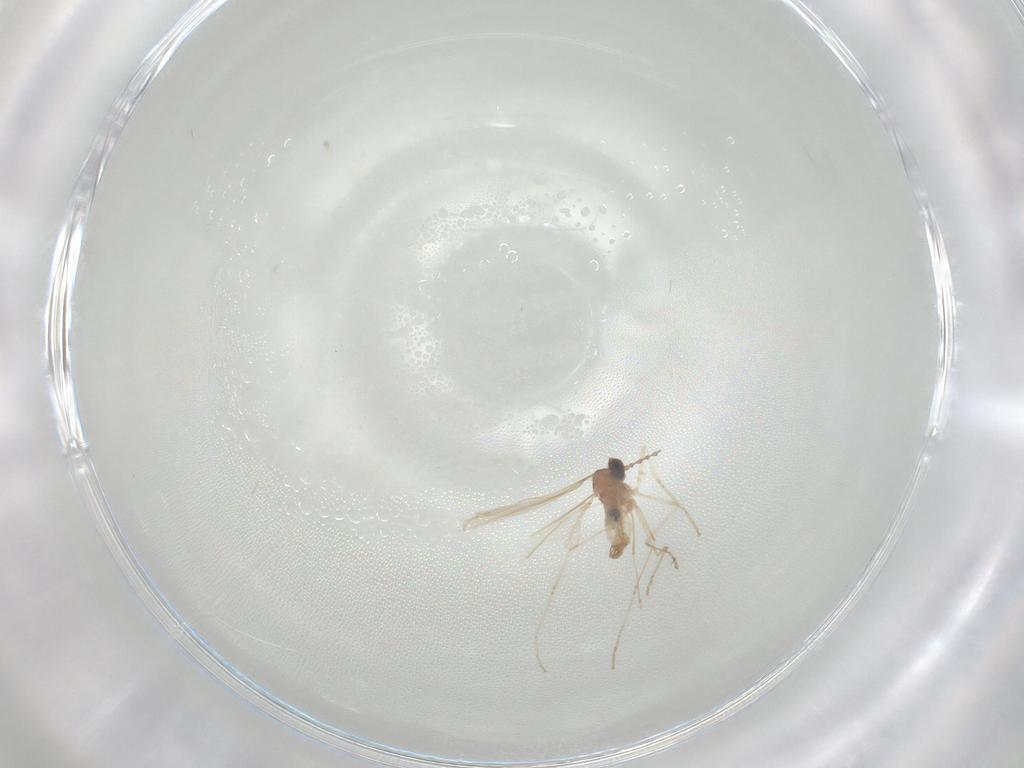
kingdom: Animalia
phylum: Arthropoda
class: Insecta
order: Diptera
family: Cecidomyiidae
